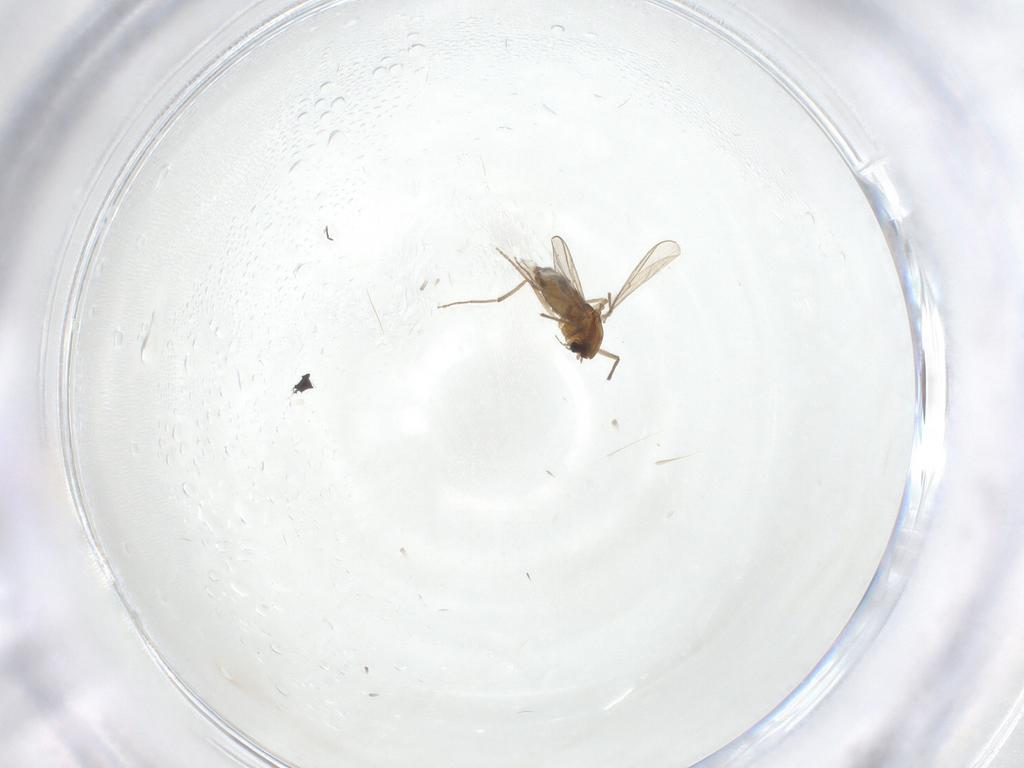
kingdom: Animalia
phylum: Arthropoda
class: Insecta
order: Diptera
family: Chironomidae
